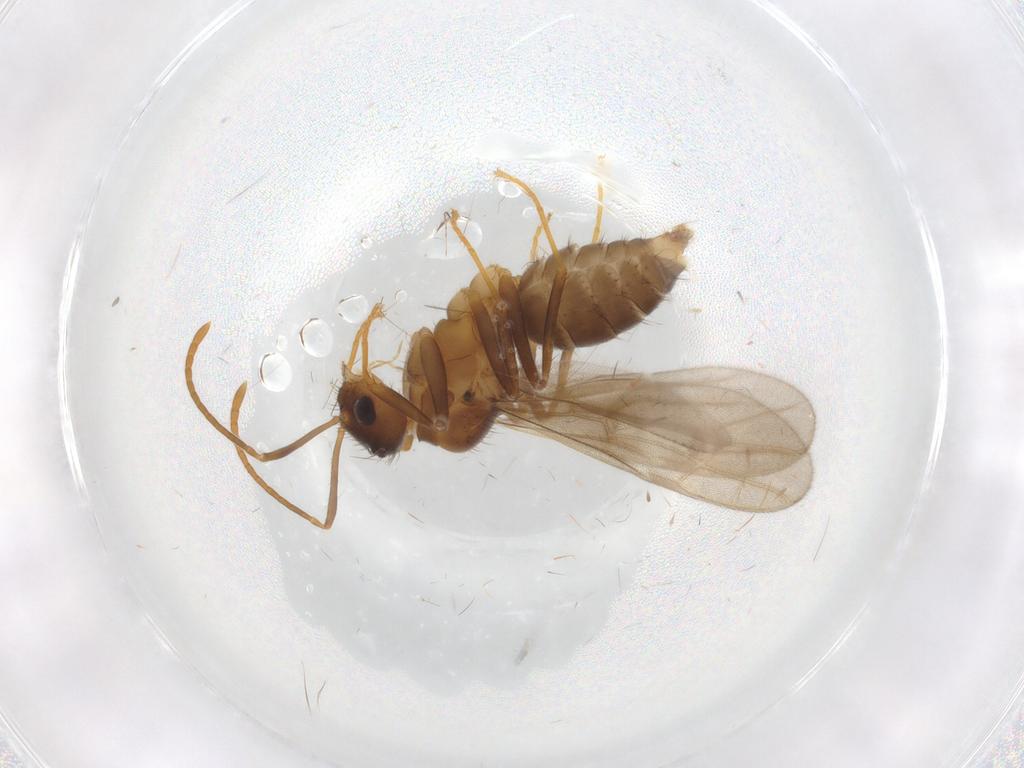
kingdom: Animalia
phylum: Arthropoda
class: Insecta
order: Hymenoptera
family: Formicidae
